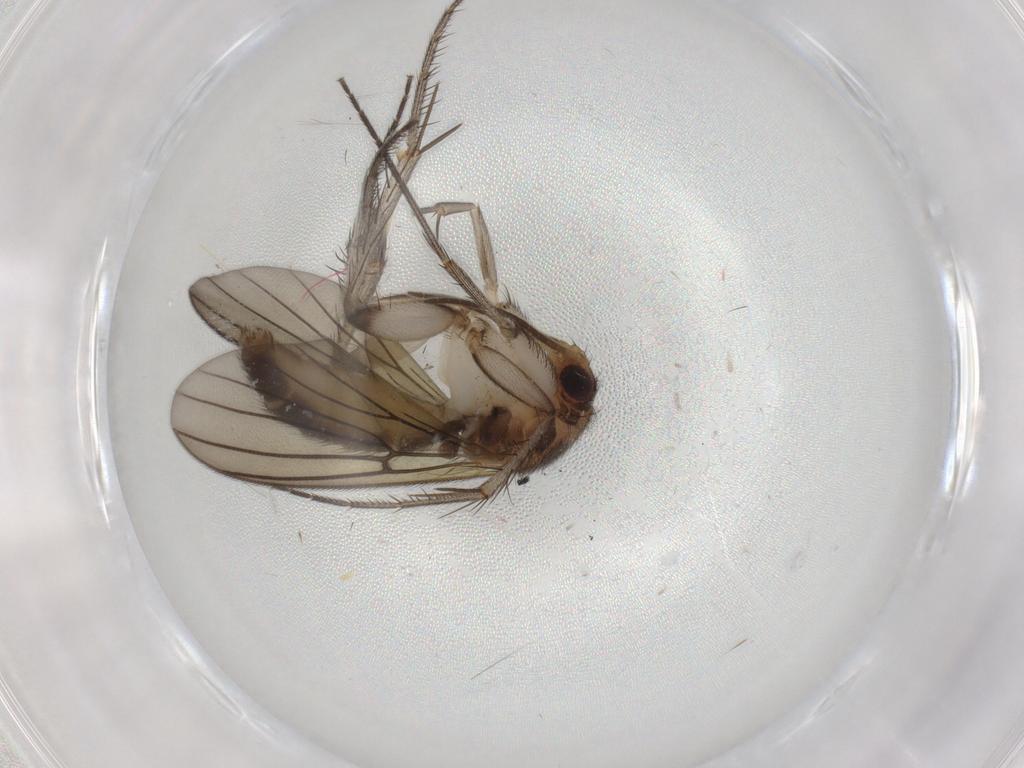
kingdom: Animalia
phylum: Arthropoda
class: Insecta
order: Diptera
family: Mycetophilidae
